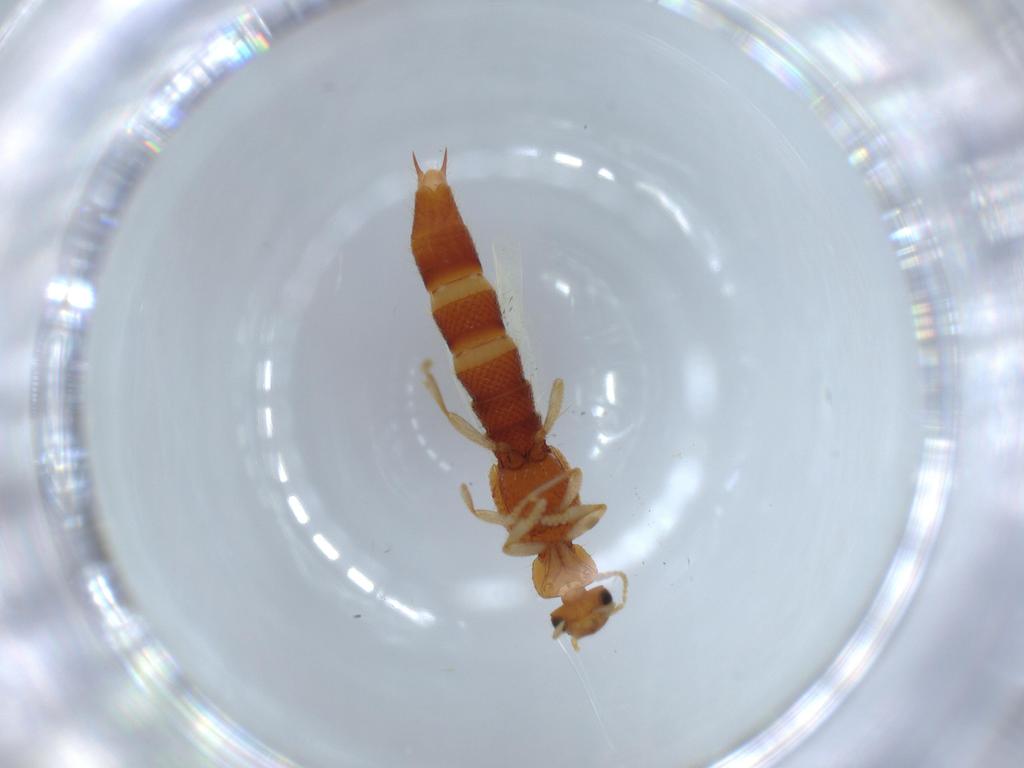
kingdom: Animalia
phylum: Arthropoda
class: Insecta
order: Coleoptera
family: Staphylinidae
